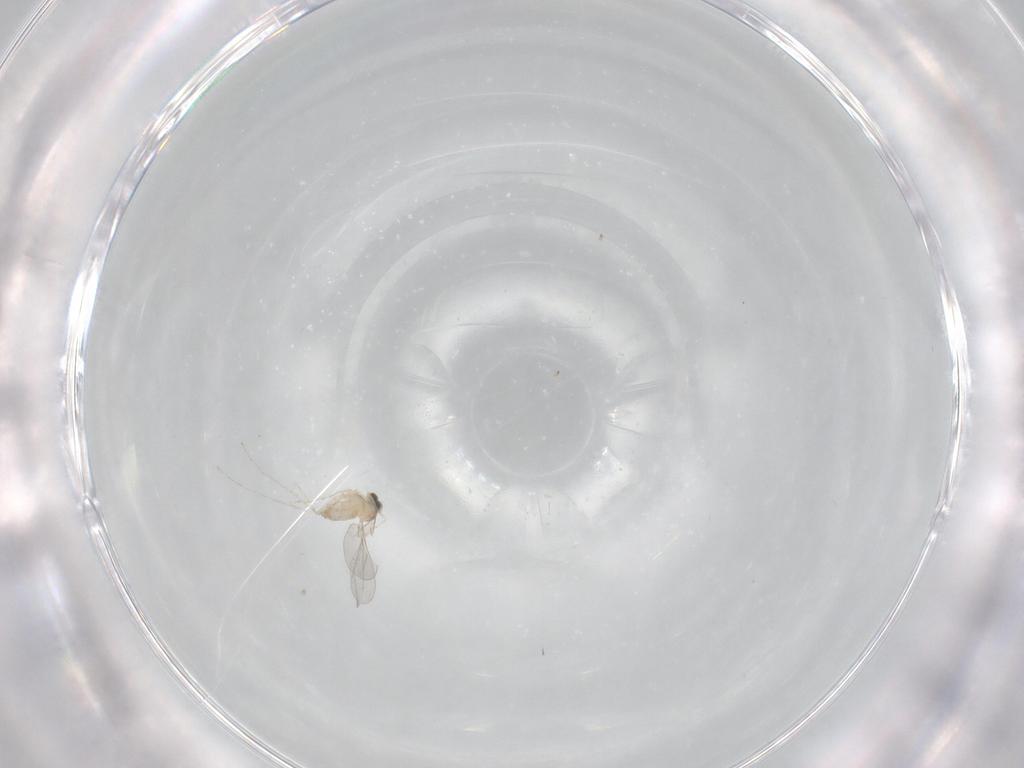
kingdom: Animalia
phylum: Arthropoda
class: Insecta
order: Diptera
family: Cecidomyiidae
